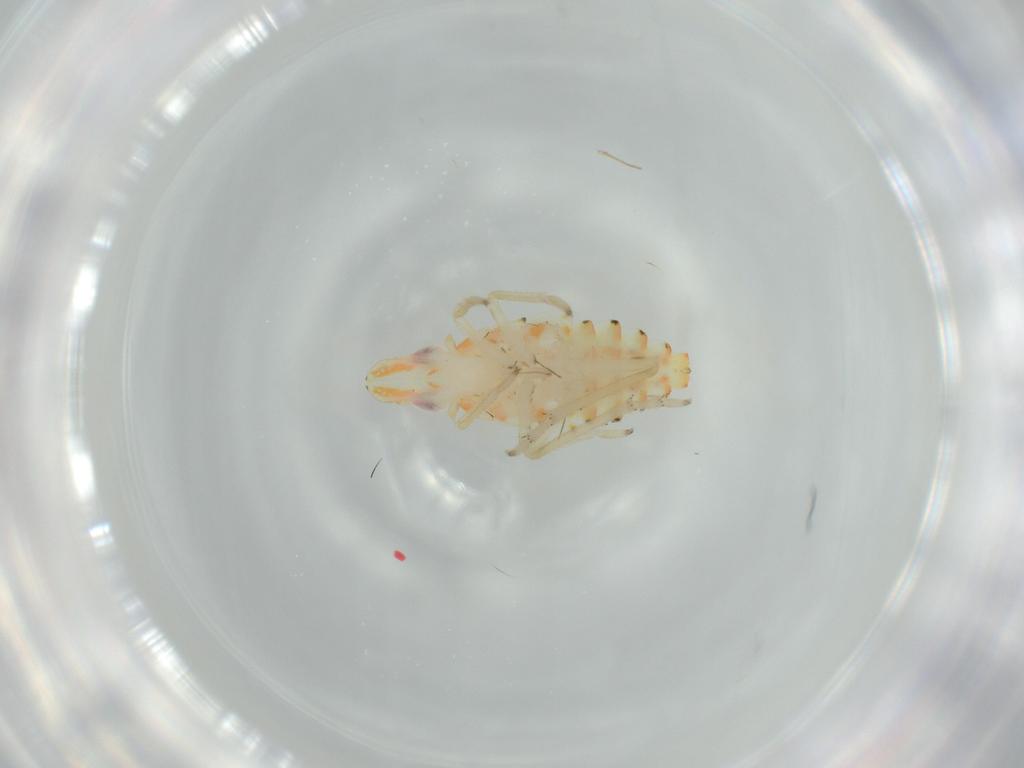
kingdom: Animalia
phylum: Arthropoda
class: Insecta
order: Hemiptera
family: Tropiduchidae
